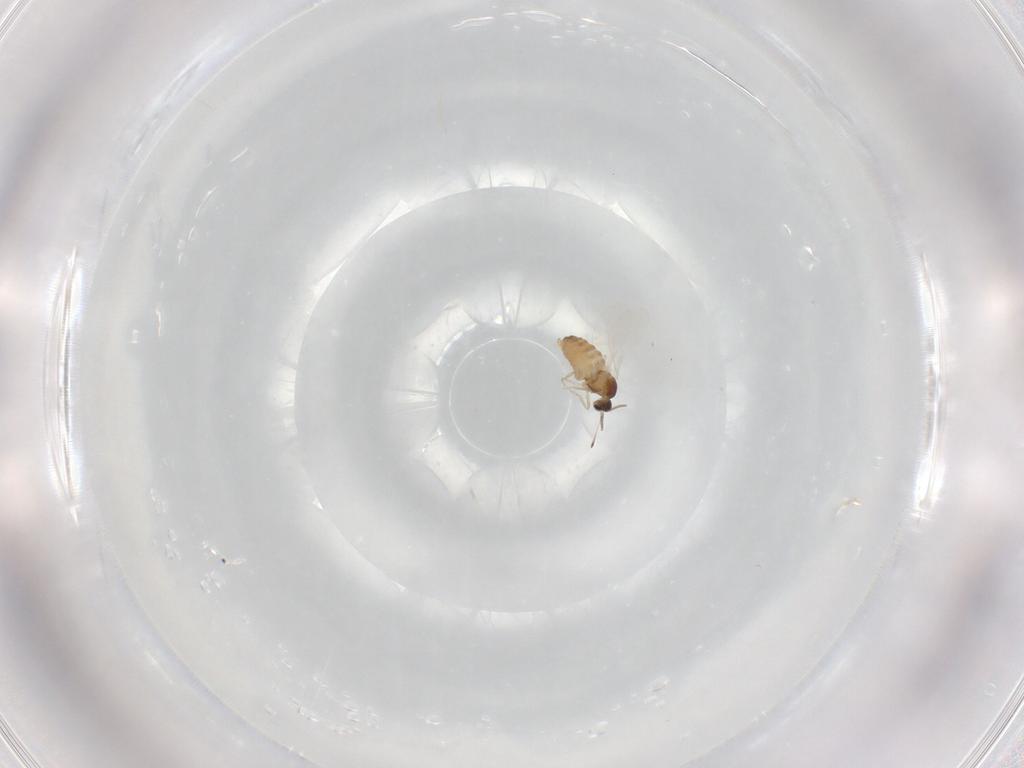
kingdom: Animalia
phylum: Arthropoda
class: Insecta
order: Diptera
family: Cecidomyiidae
